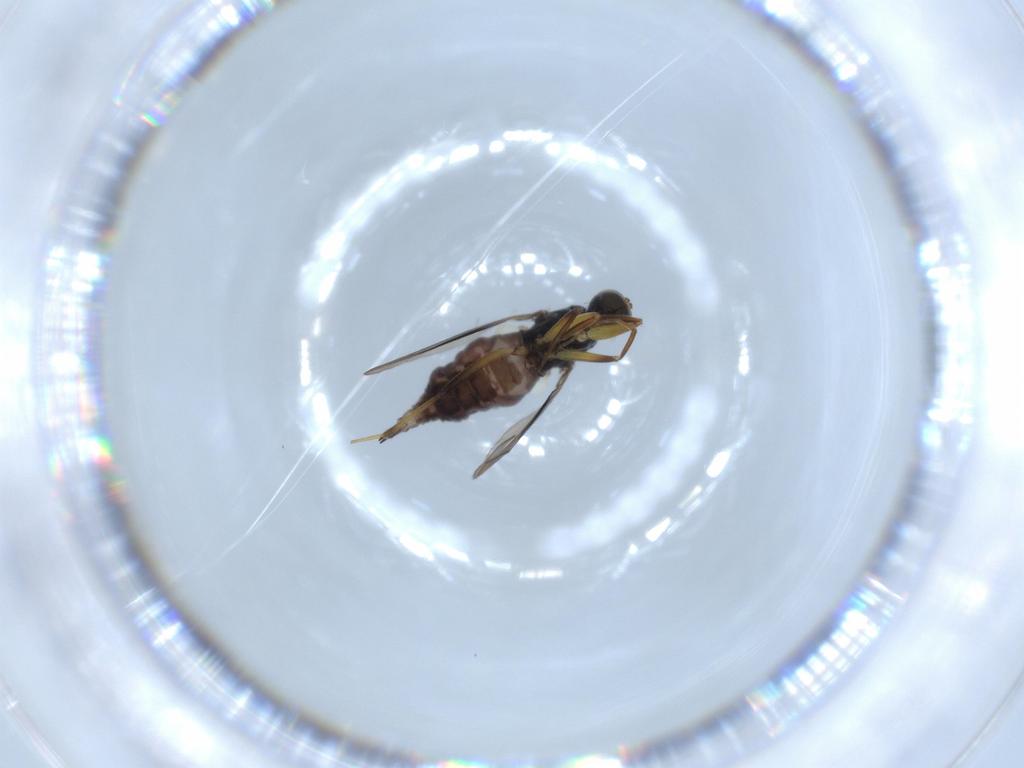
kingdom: Animalia
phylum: Arthropoda
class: Insecta
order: Diptera
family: Hybotidae
